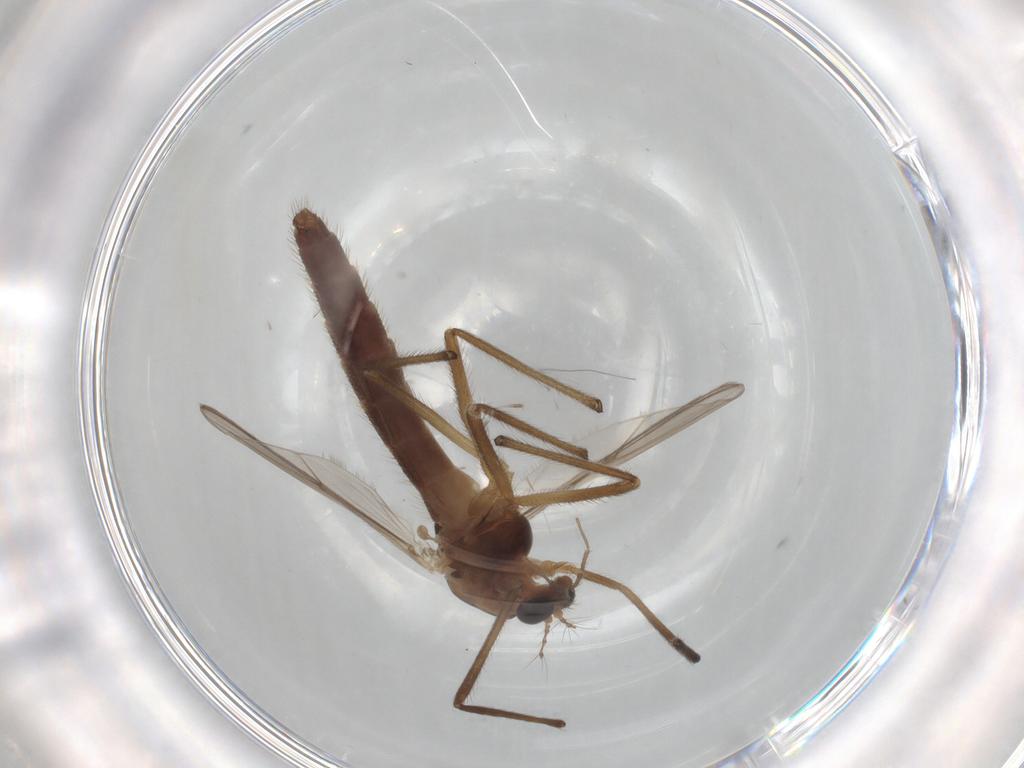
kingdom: Animalia
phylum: Arthropoda
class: Insecta
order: Diptera
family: Chironomidae
